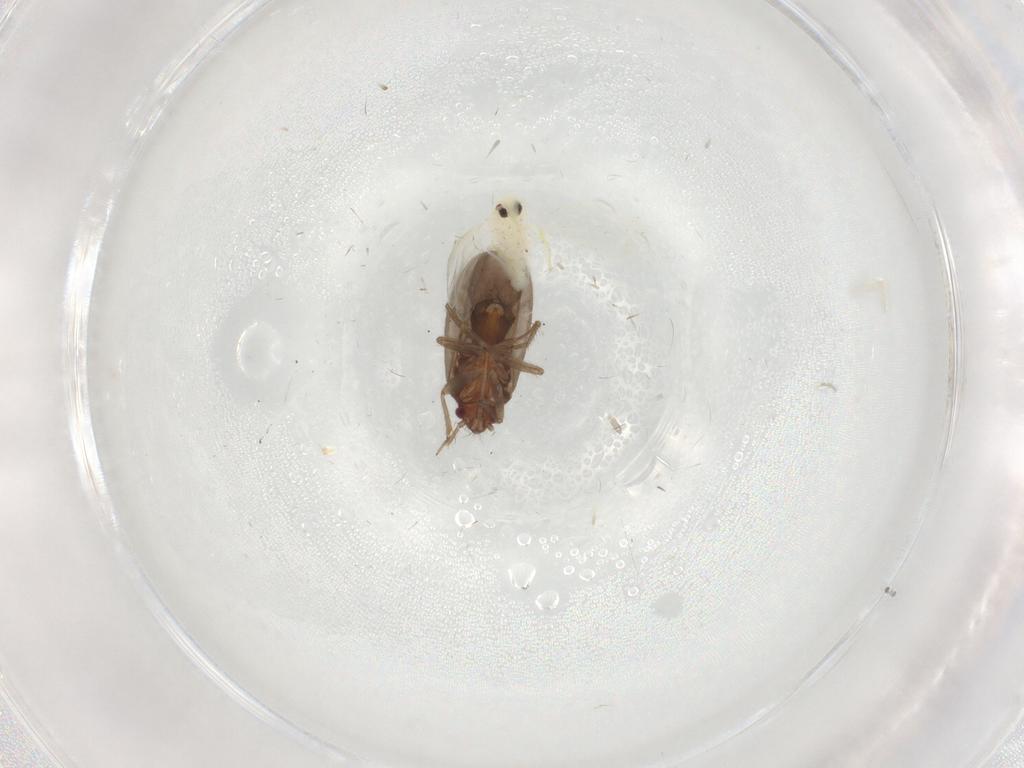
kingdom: Animalia
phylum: Arthropoda
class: Insecta
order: Hemiptera
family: Ceratocombidae
